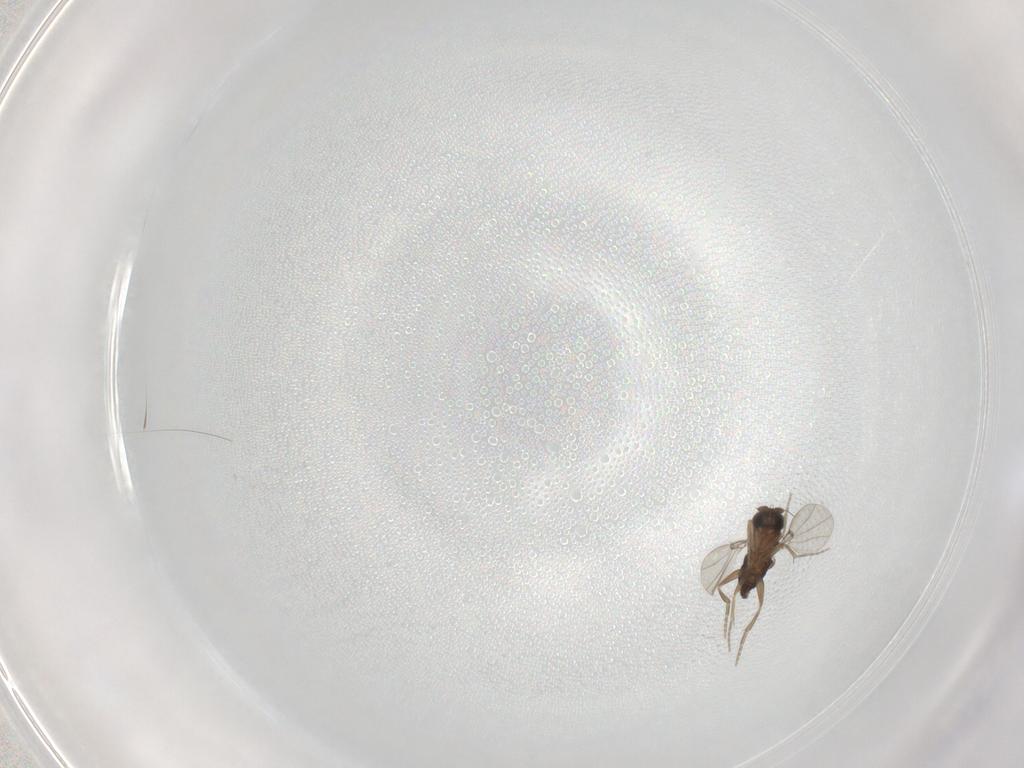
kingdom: Animalia
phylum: Arthropoda
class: Insecta
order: Diptera
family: Phoridae
